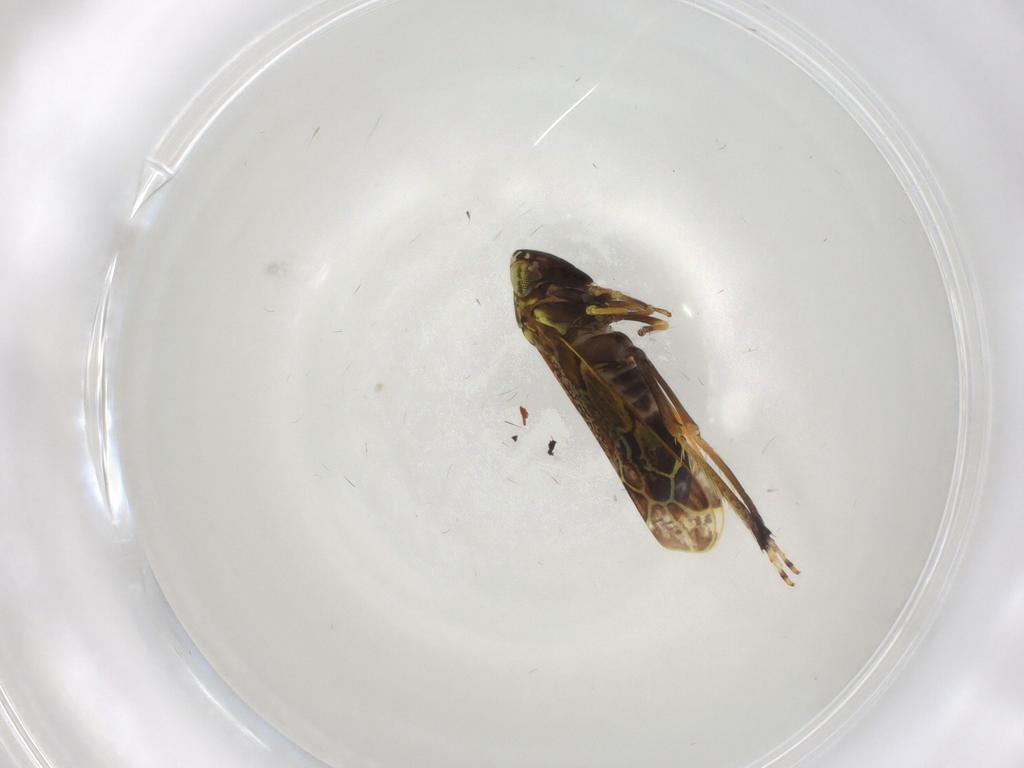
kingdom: Animalia
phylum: Arthropoda
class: Insecta
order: Hemiptera
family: Cicadellidae
